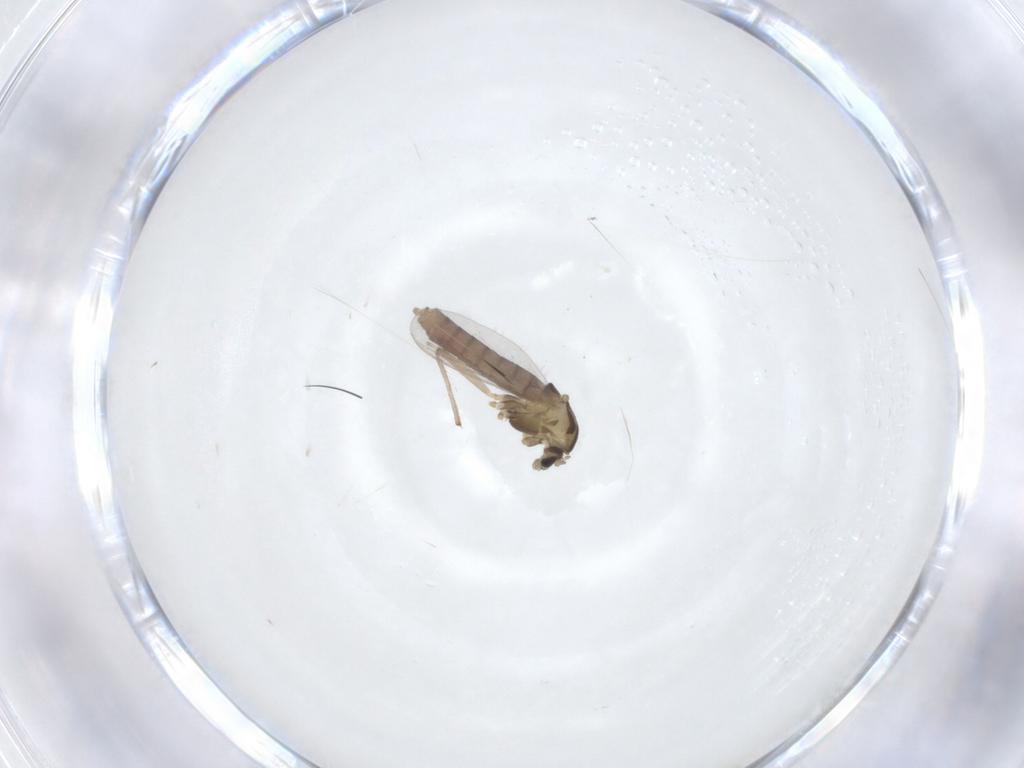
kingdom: Animalia
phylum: Arthropoda
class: Insecta
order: Diptera
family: Chironomidae
